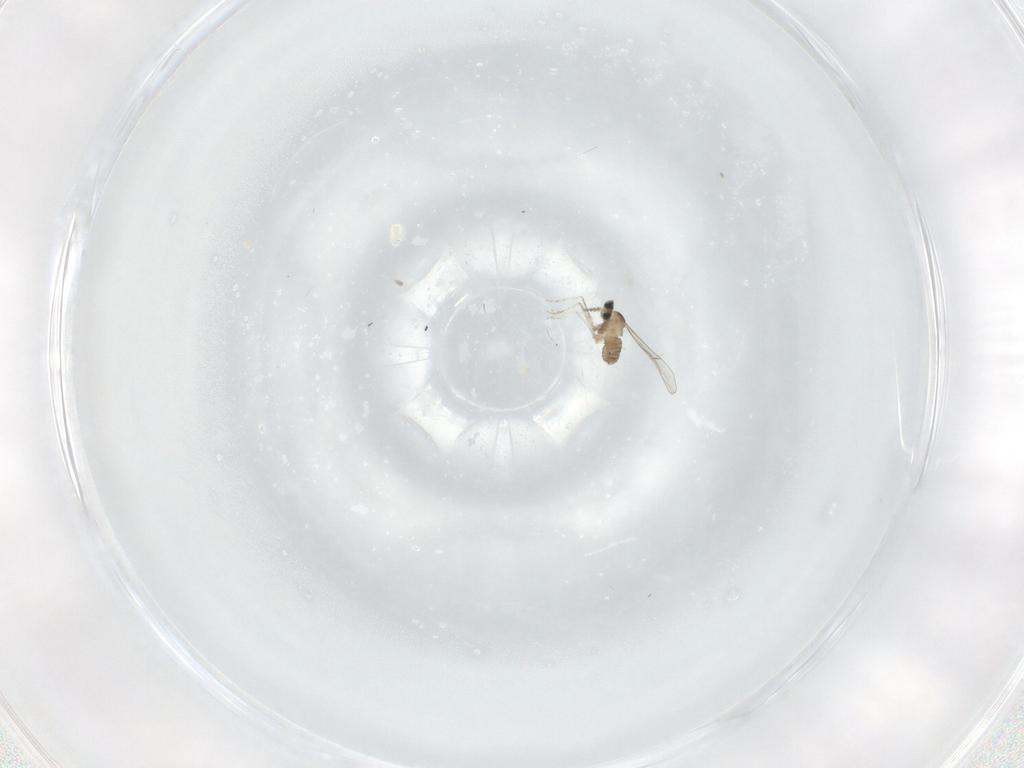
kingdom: Animalia
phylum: Arthropoda
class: Insecta
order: Diptera
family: Cecidomyiidae
